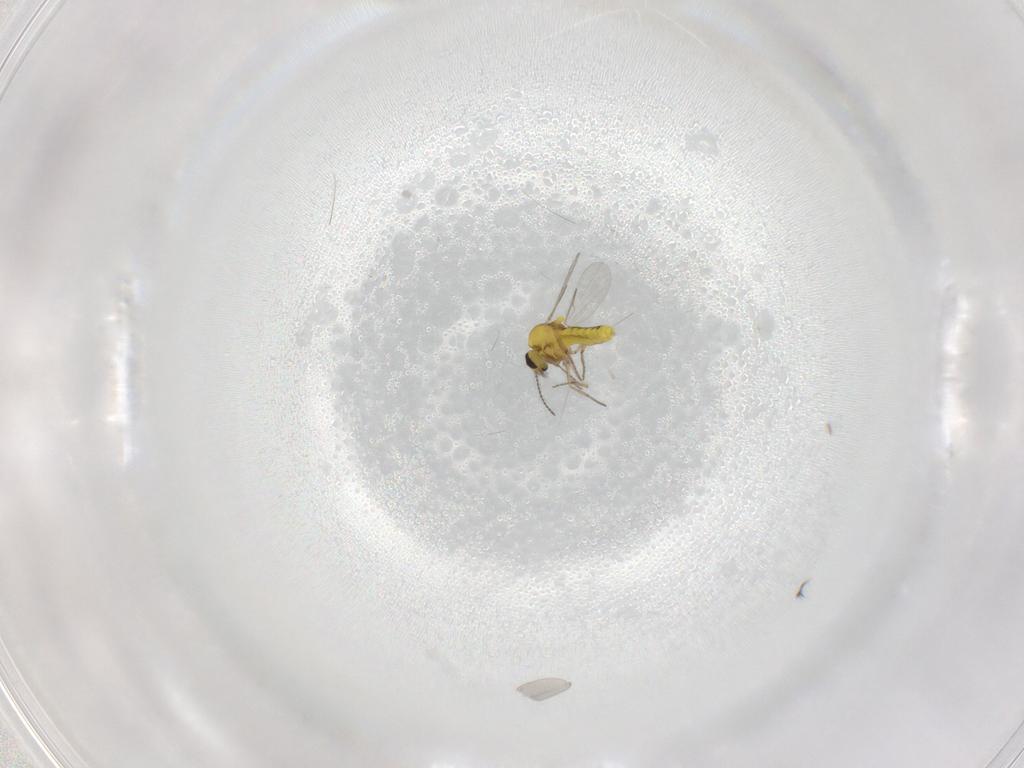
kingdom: Animalia
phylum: Arthropoda
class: Insecta
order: Diptera
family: Ceratopogonidae
